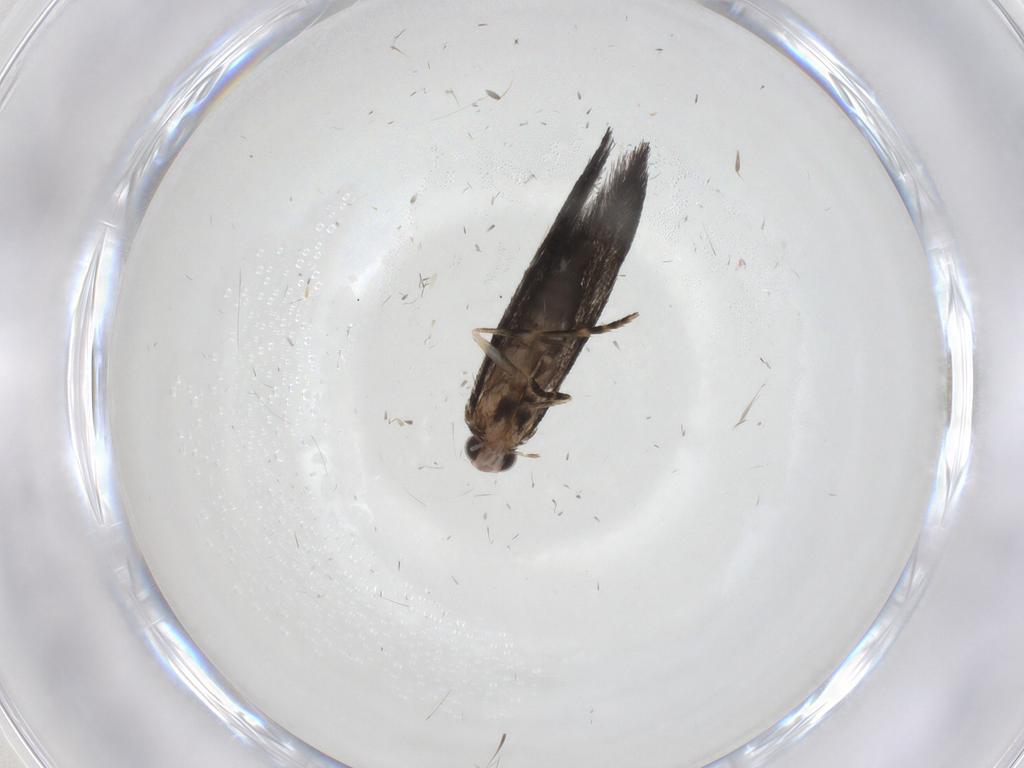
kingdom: Animalia
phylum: Arthropoda
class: Insecta
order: Lepidoptera
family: Tineidae
